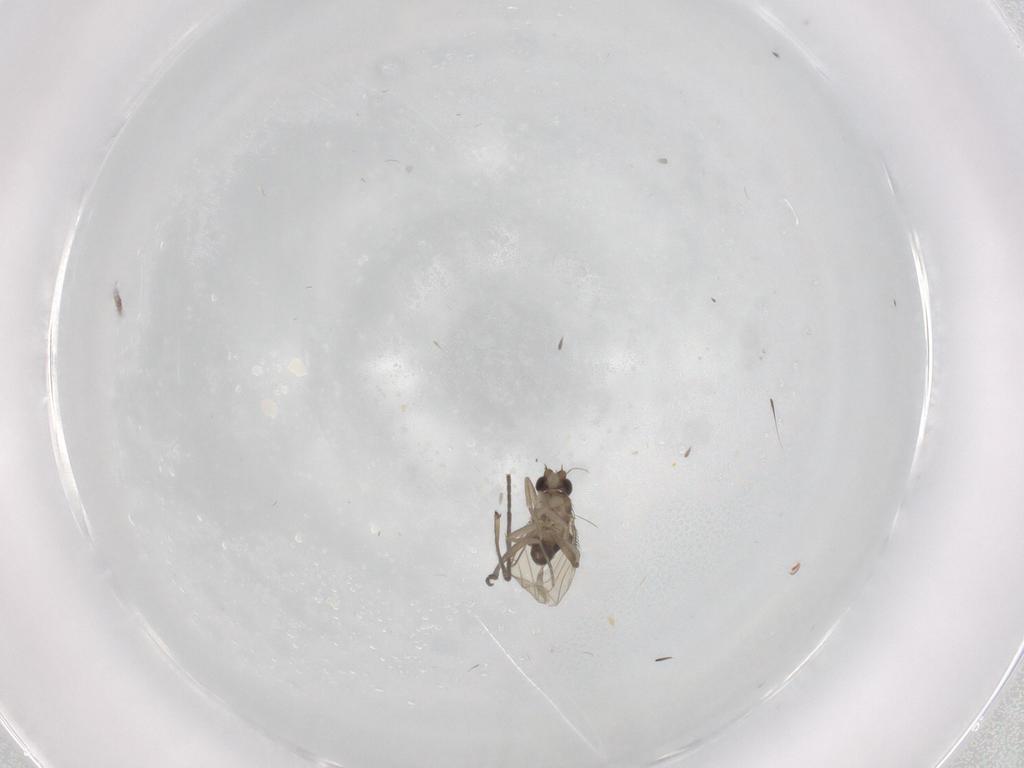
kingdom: Animalia
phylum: Arthropoda
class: Insecta
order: Diptera
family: Phoridae
